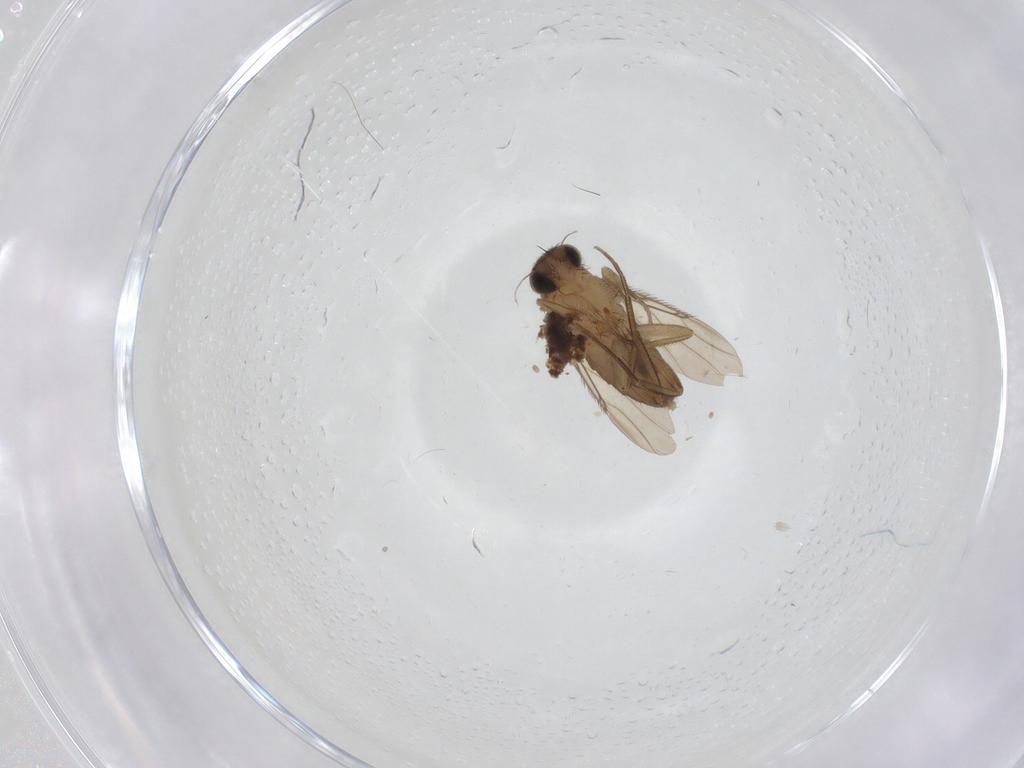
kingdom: Animalia
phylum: Arthropoda
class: Insecta
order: Diptera
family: Phoridae
